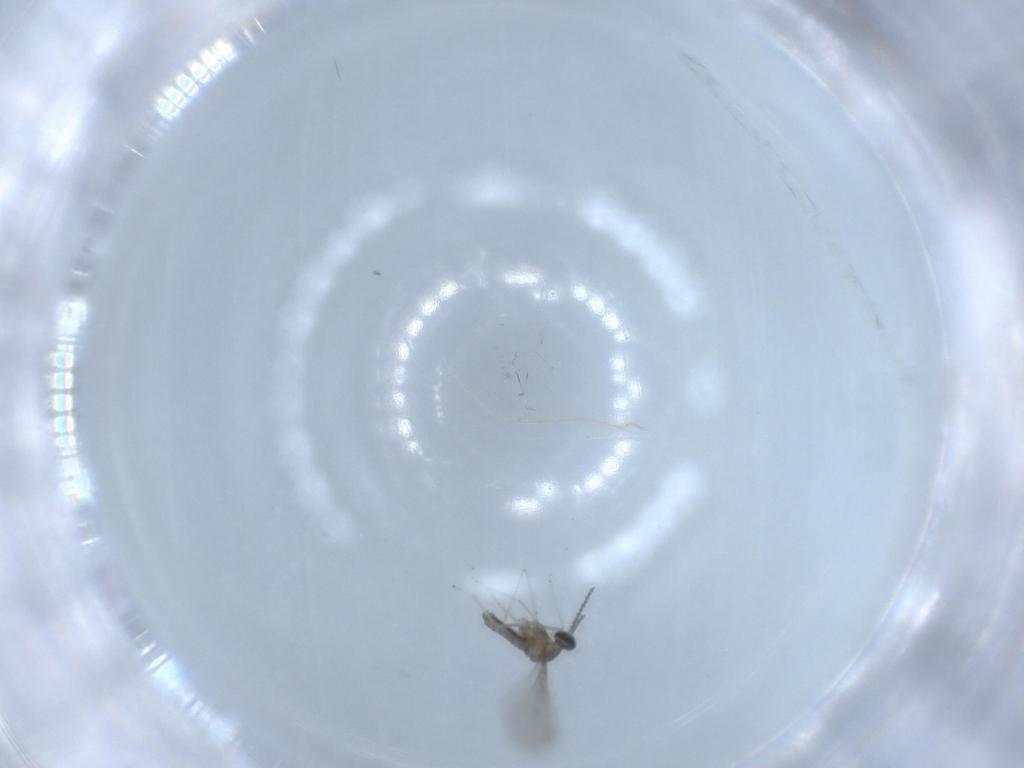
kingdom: Animalia
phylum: Arthropoda
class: Insecta
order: Diptera
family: Cecidomyiidae
